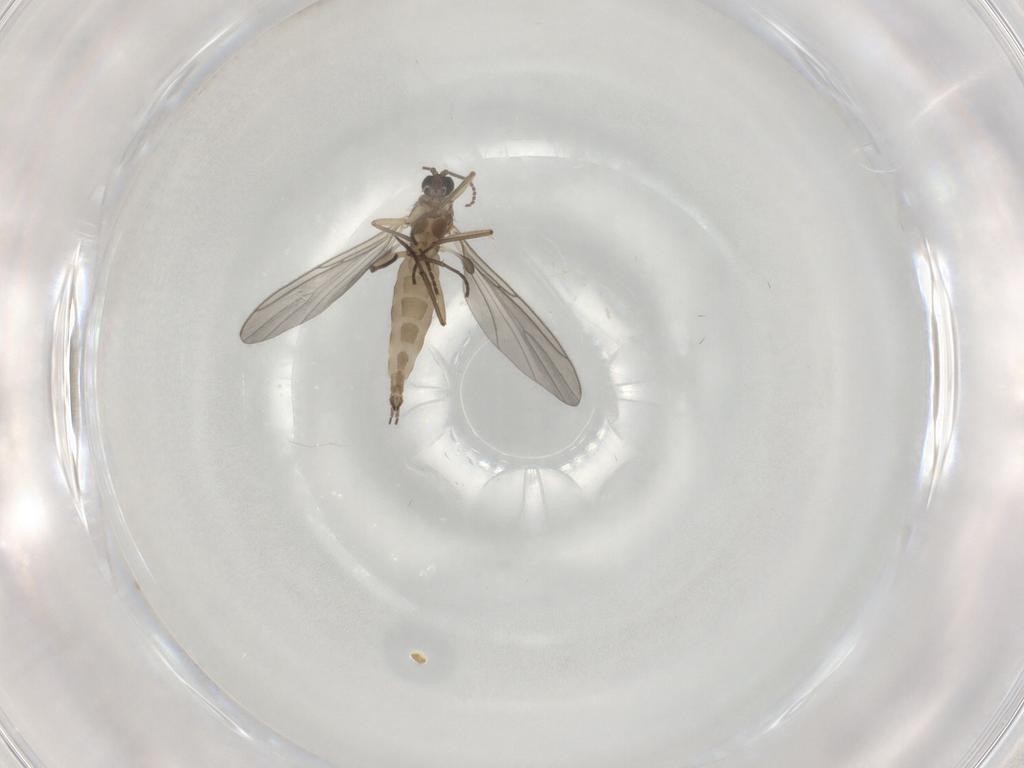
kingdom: Animalia
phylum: Arthropoda
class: Insecta
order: Diptera
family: Sciaridae
